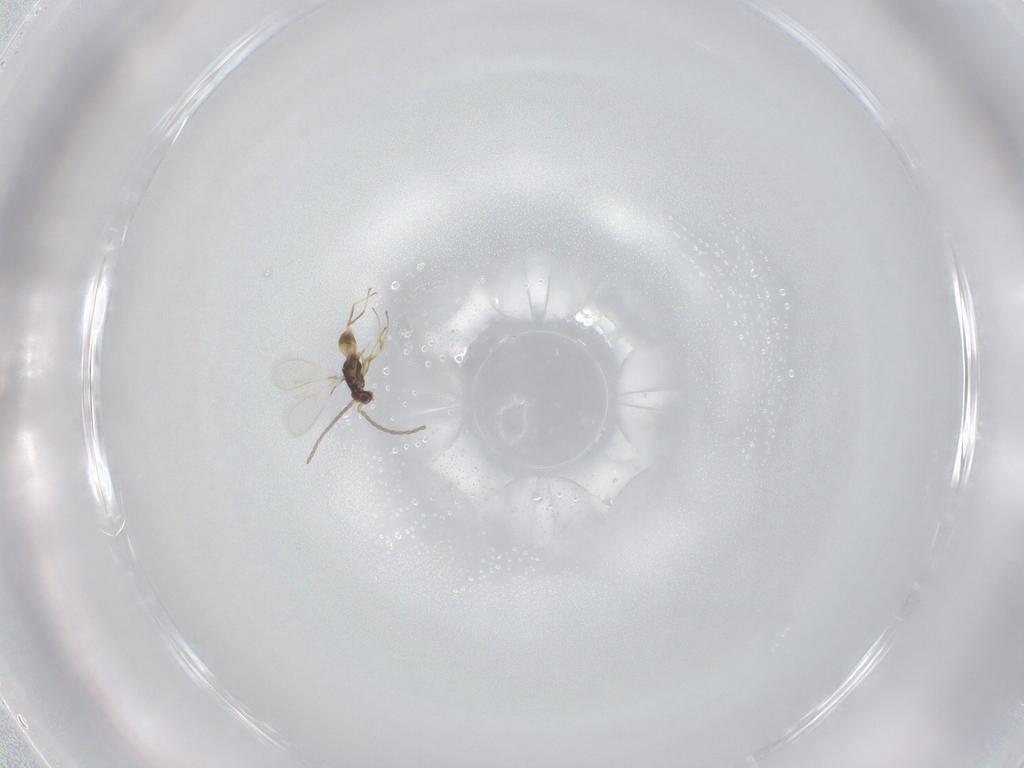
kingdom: Animalia
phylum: Arthropoda
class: Insecta
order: Hymenoptera
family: Mymaridae
